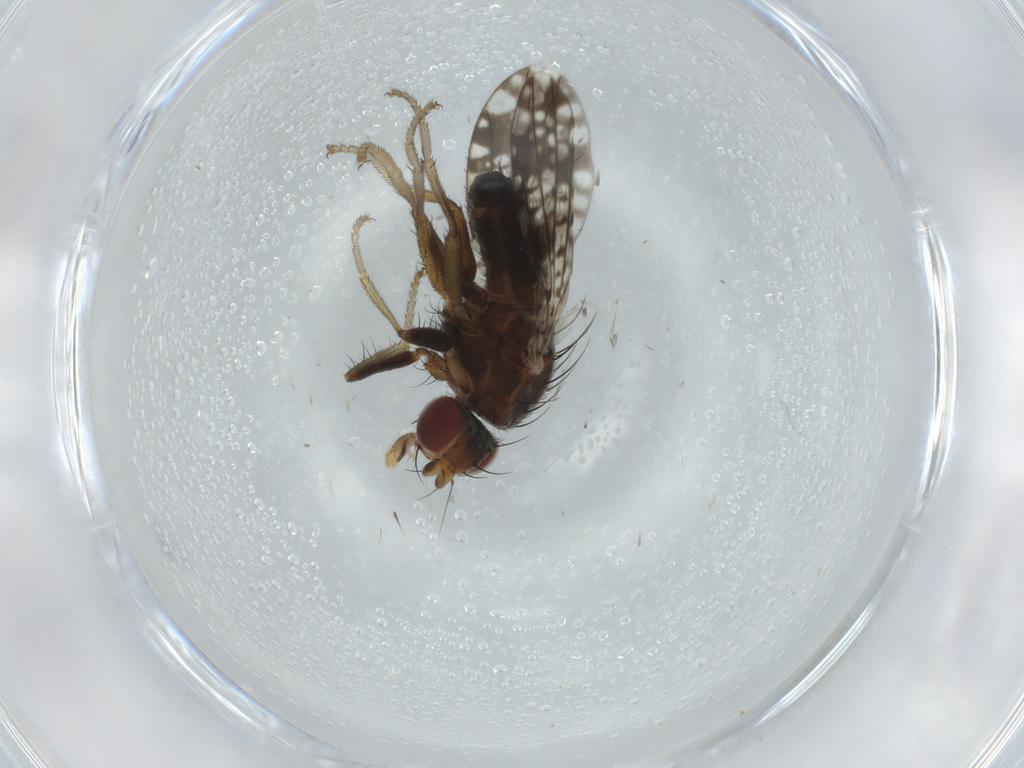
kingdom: Animalia
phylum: Arthropoda
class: Insecta
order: Diptera
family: Tephritidae
